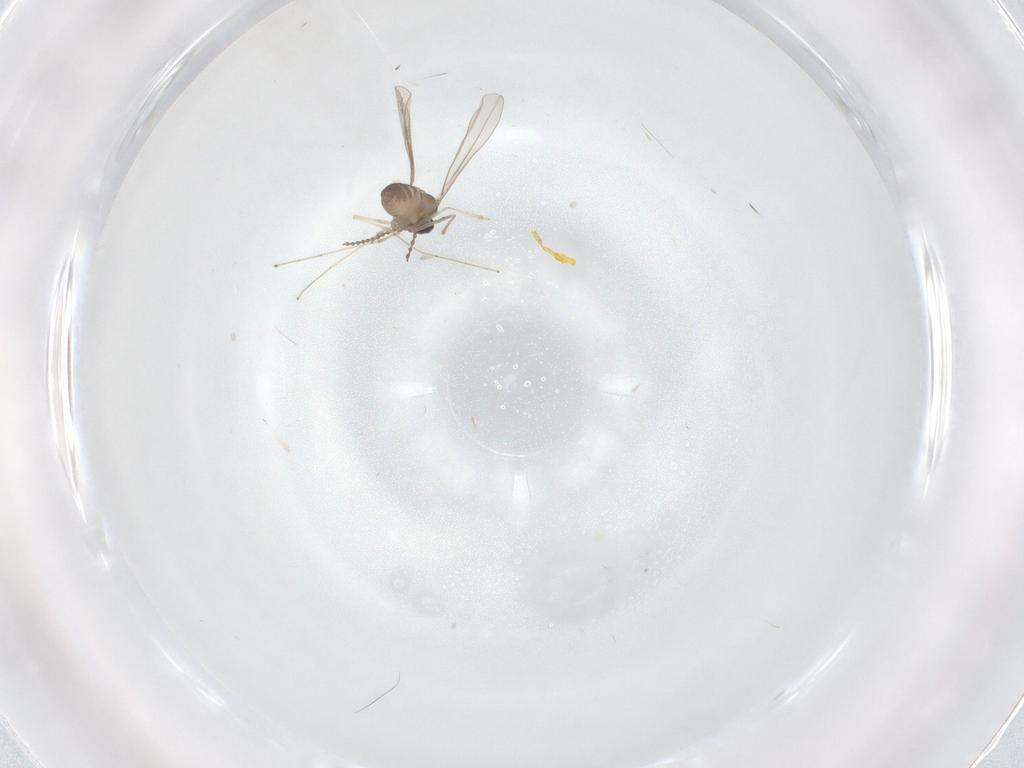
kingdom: Animalia
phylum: Arthropoda
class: Insecta
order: Diptera
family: Cecidomyiidae
